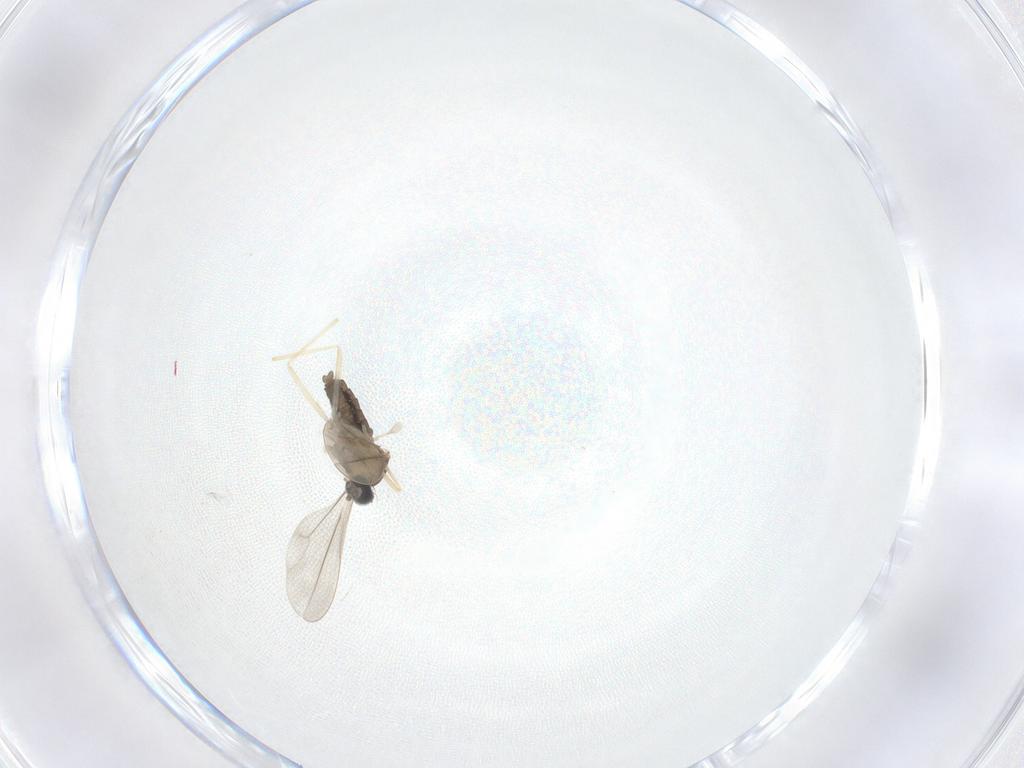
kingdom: Animalia
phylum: Arthropoda
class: Insecta
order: Diptera
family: Cecidomyiidae
